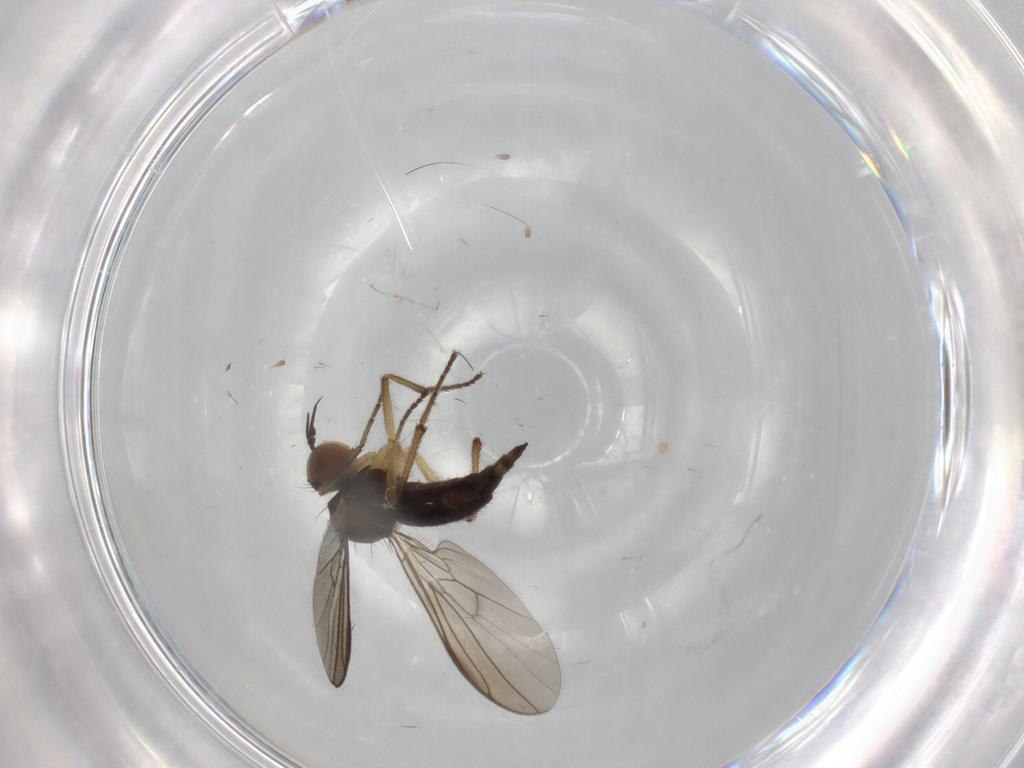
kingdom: Animalia
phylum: Arthropoda
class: Insecta
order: Diptera
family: Empididae
